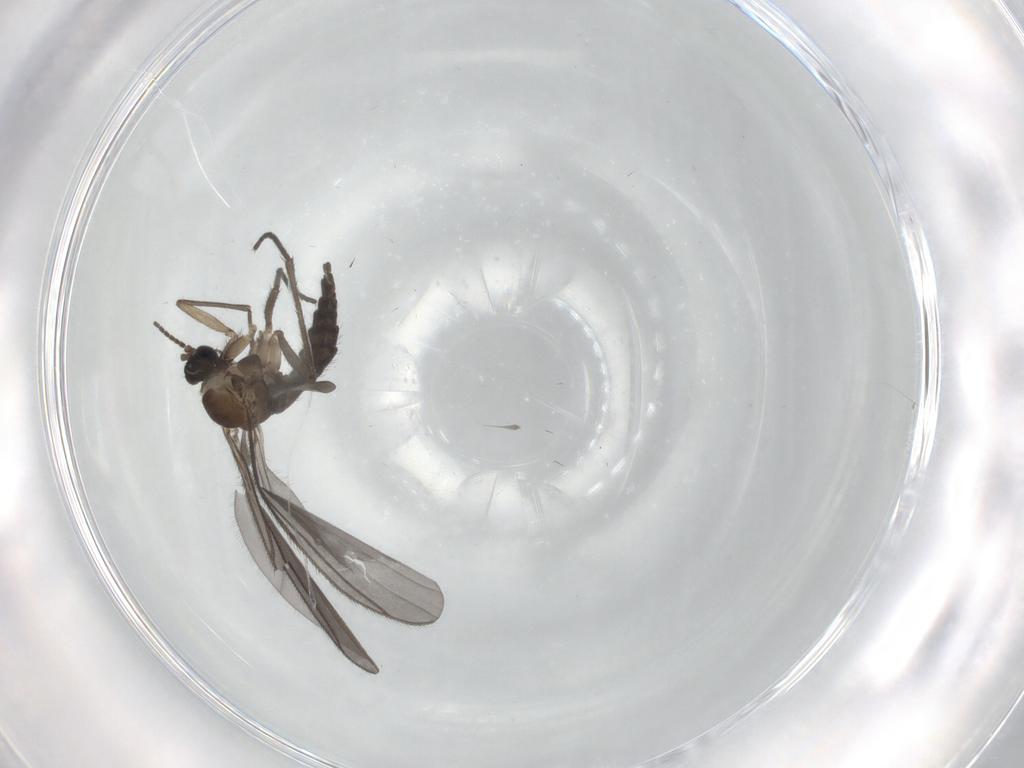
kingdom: Animalia
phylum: Arthropoda
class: Insecta
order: Diptera
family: Sciaridae
